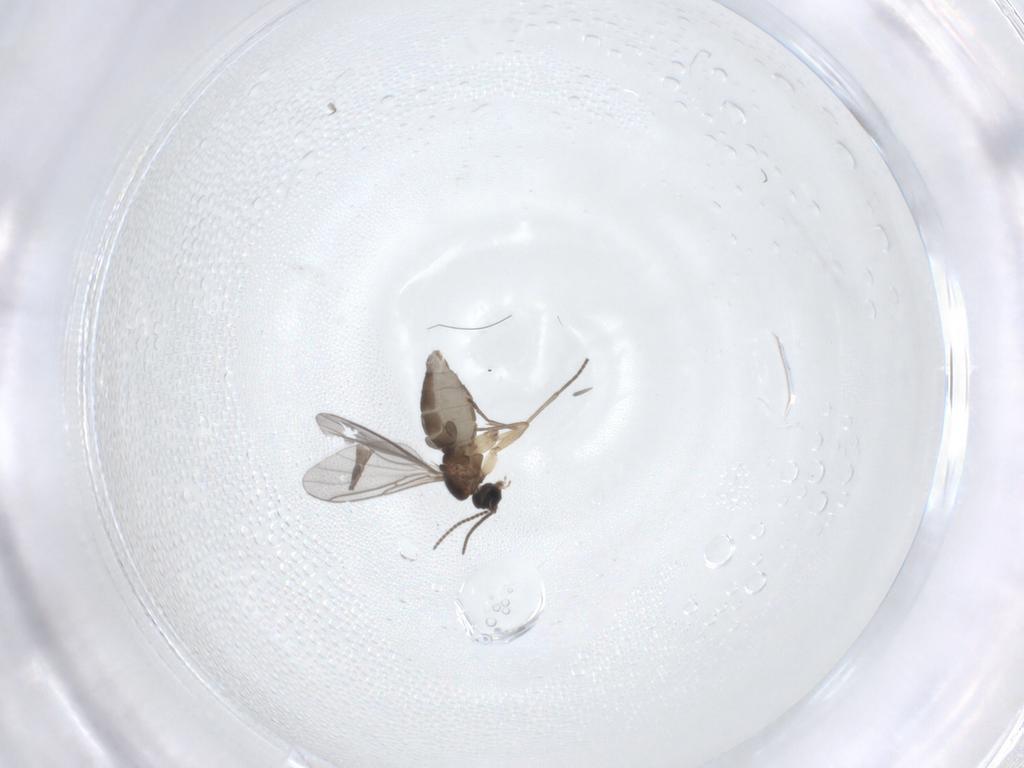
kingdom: Animalia
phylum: Arthropoda
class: Insecta
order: Diptera
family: Sciaridae
